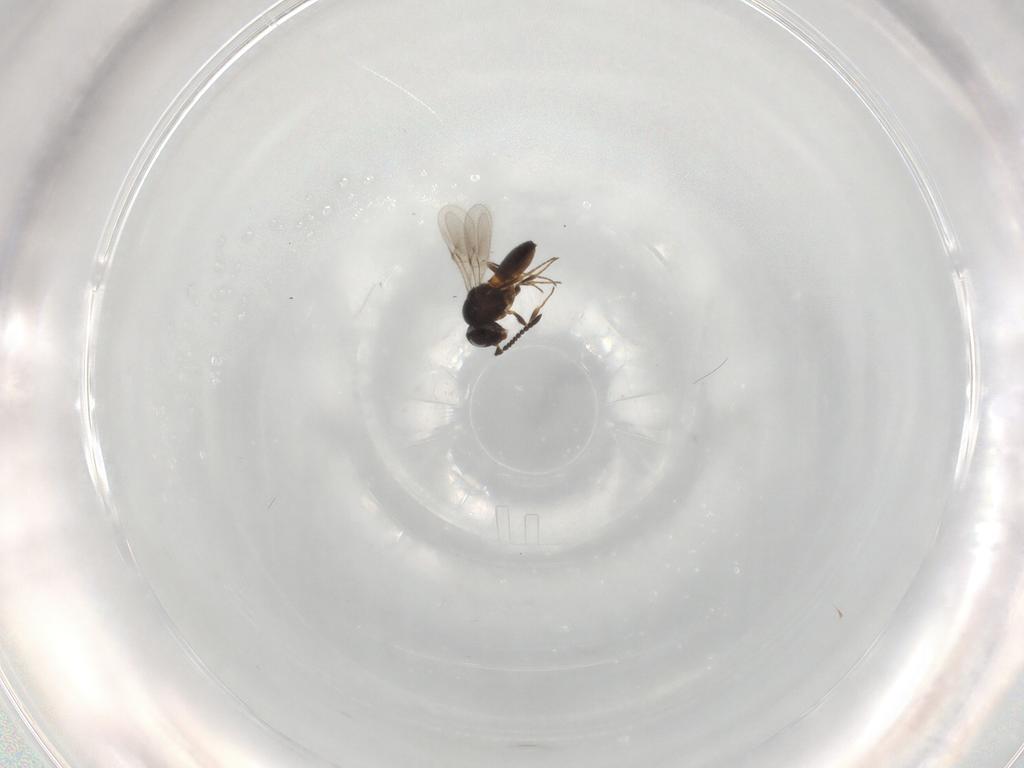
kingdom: Animalia
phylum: Arthropoda
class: Insecta
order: Hymenoptera
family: Scelionidae
